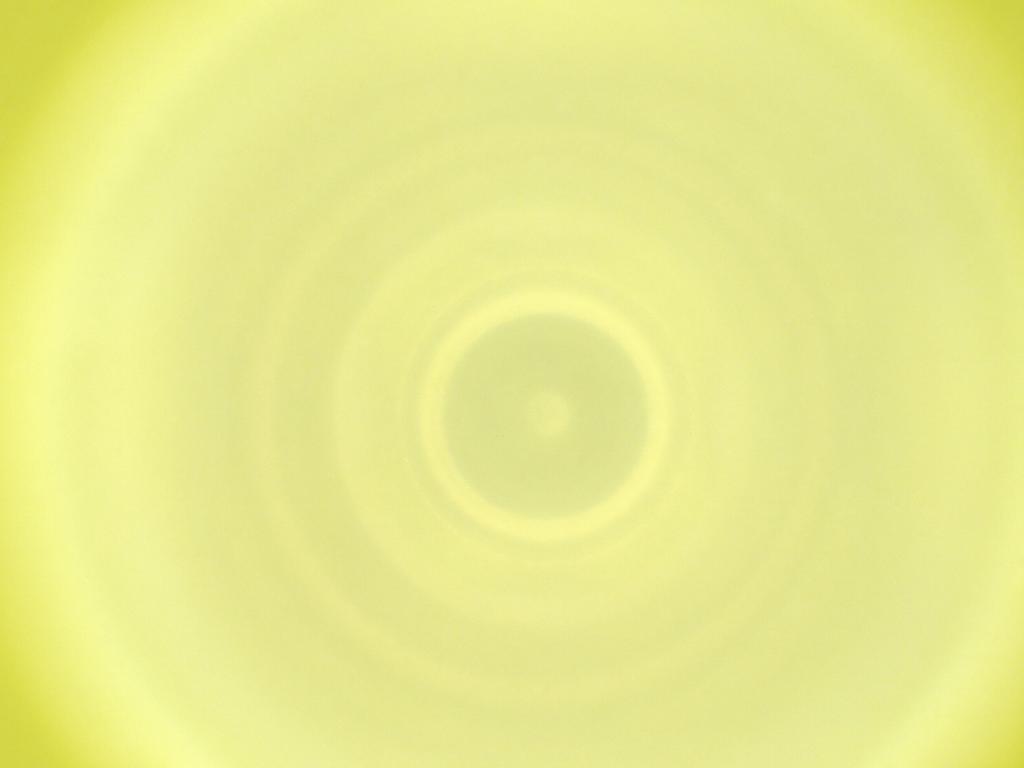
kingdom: Animalia
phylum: Arthropoda
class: Insecta
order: Diptera
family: Cecidomyiidae
